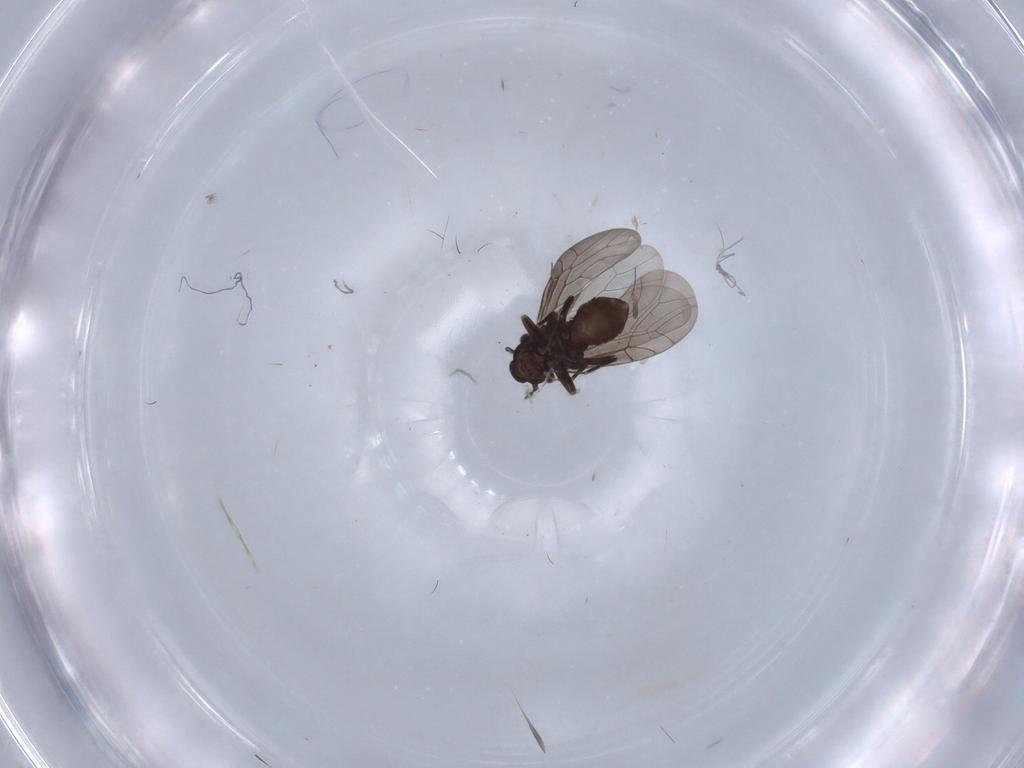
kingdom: Animalia
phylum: Arthropoda
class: Insecta
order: Psocodea
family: Lepidopsocidae
